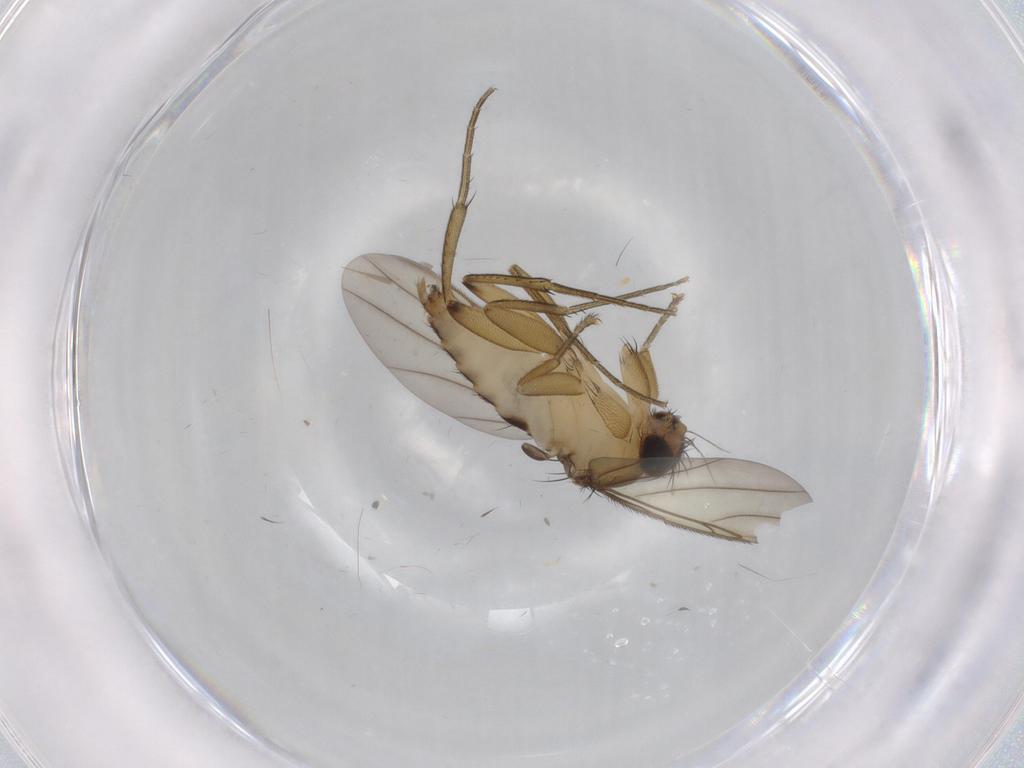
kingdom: Animalia
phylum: Arthropoda
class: Insecta
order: Diptera
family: Phoridae
